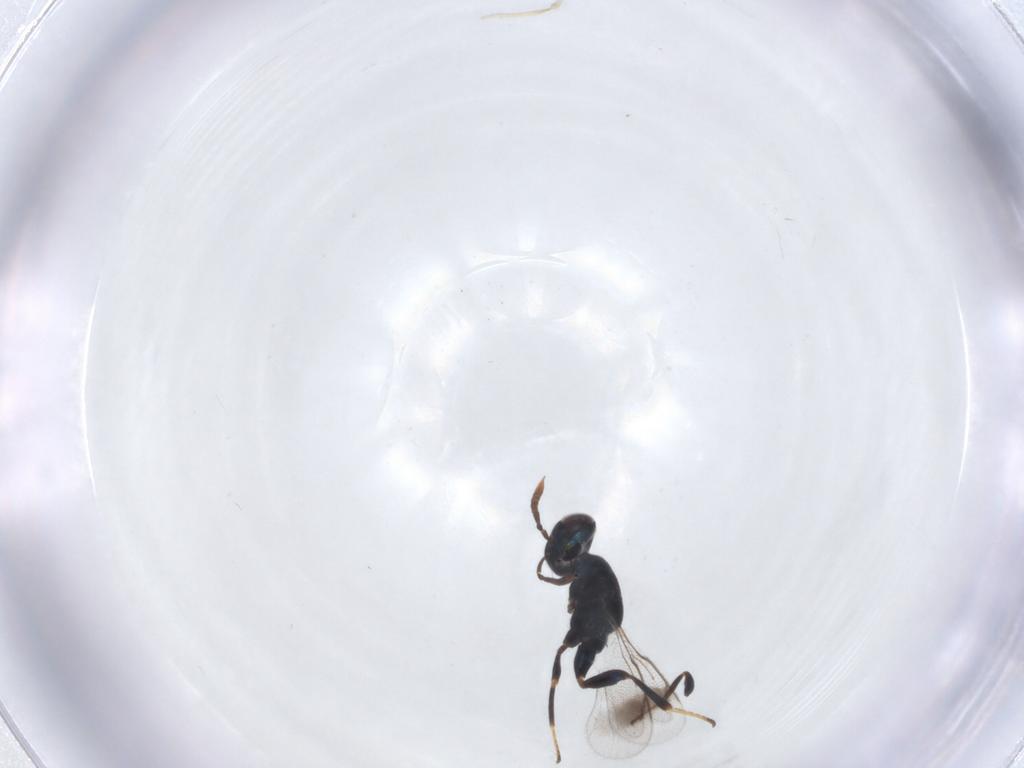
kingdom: Animalia
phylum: Arthropoda
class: Insecta
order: Hymenoptera
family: Cleonyminae
